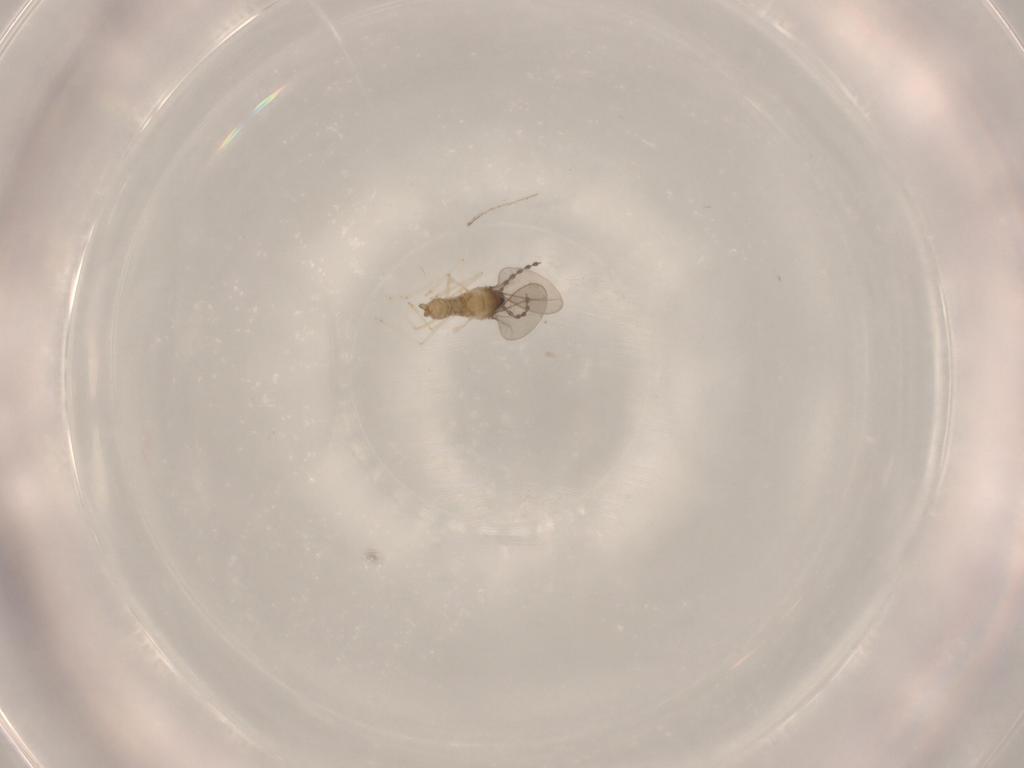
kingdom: Animalia
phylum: Arthropoda
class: Insecta
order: Diptera
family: Cecidomyiidae
